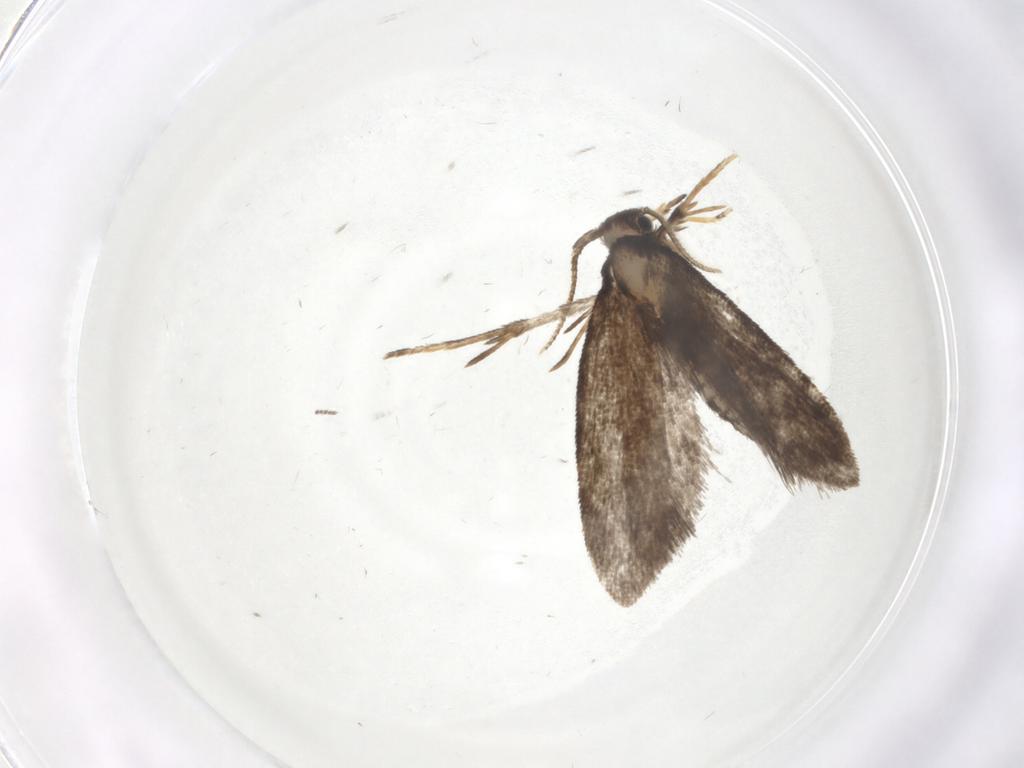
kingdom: Animalia
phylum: Arthropoda
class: Insecta
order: Lepidoptera
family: Psychidae
